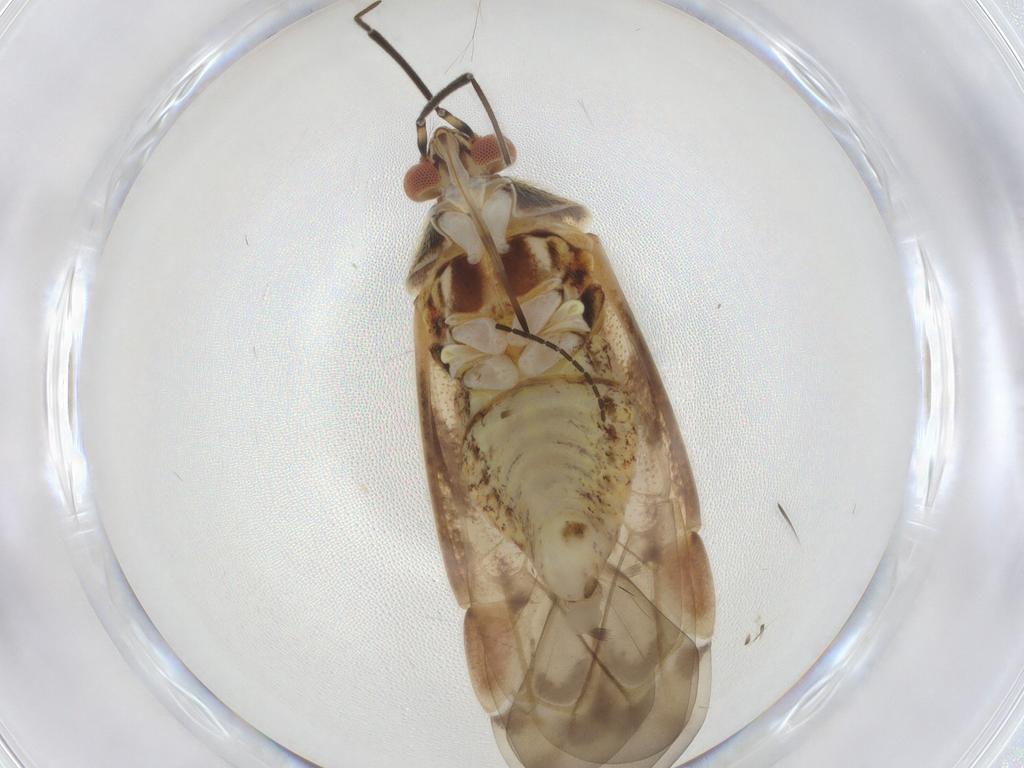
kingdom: Animalia
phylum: Arthropoda
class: Insecta
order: Hemiptera
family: Miridae
